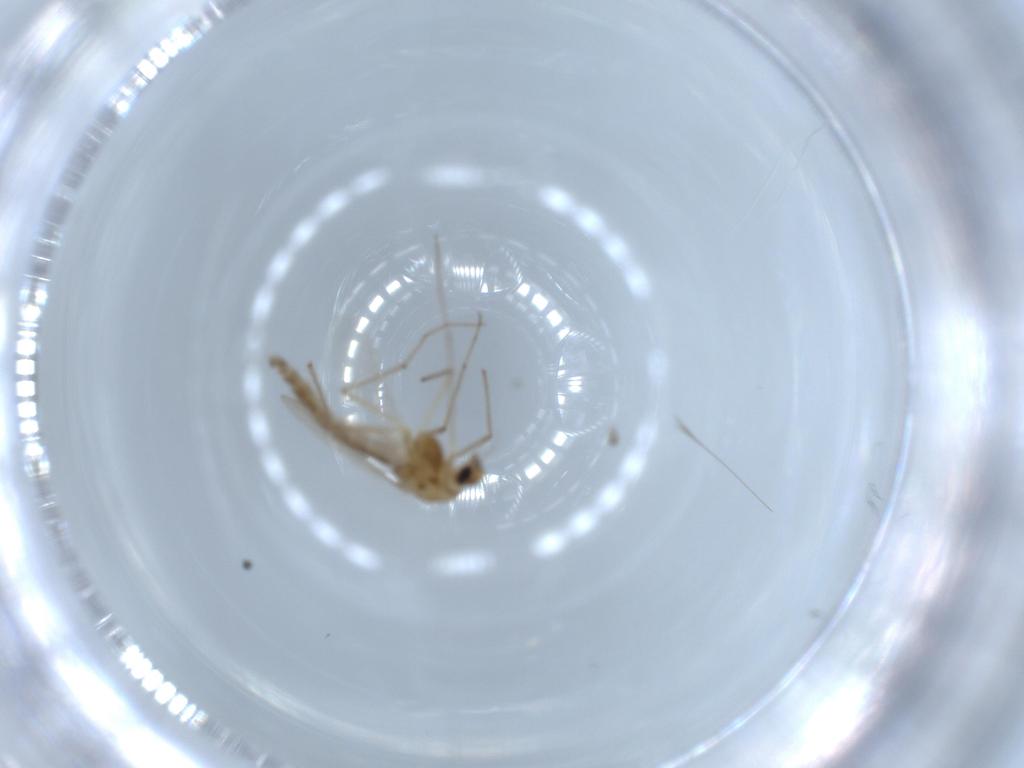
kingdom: Animalia
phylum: Arthropoda
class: Insecta
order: Diptera
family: Chironomidae
